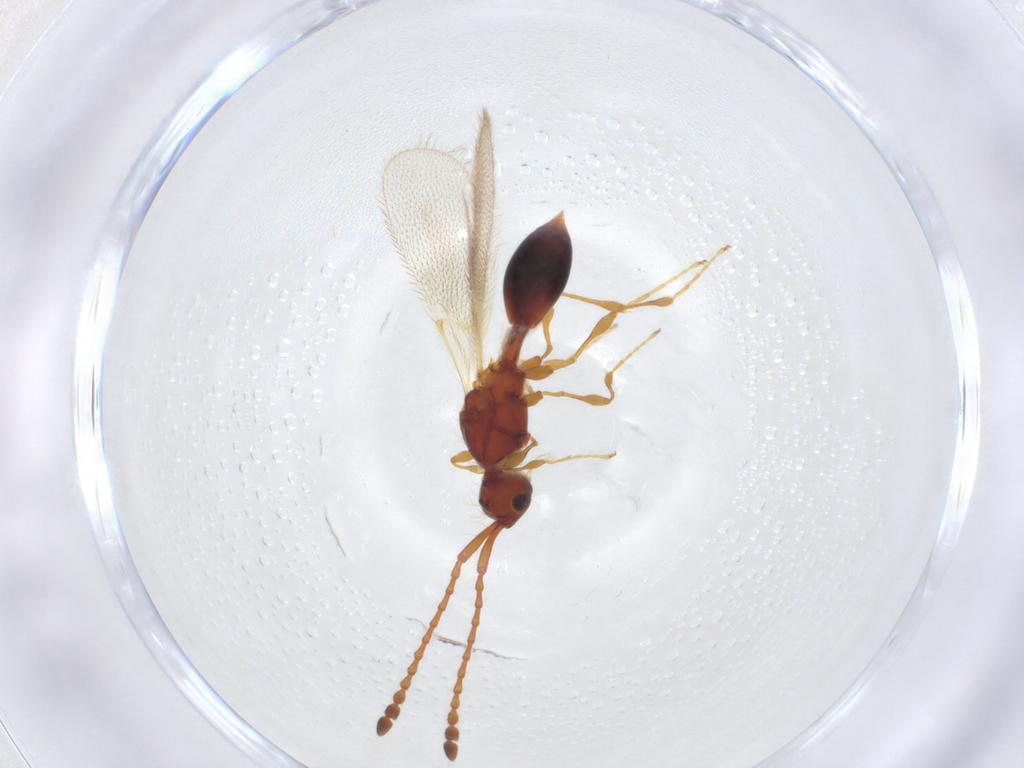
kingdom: Animalia
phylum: Arthropoda
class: Insecta
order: Hymenoptera
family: Diapriidae
